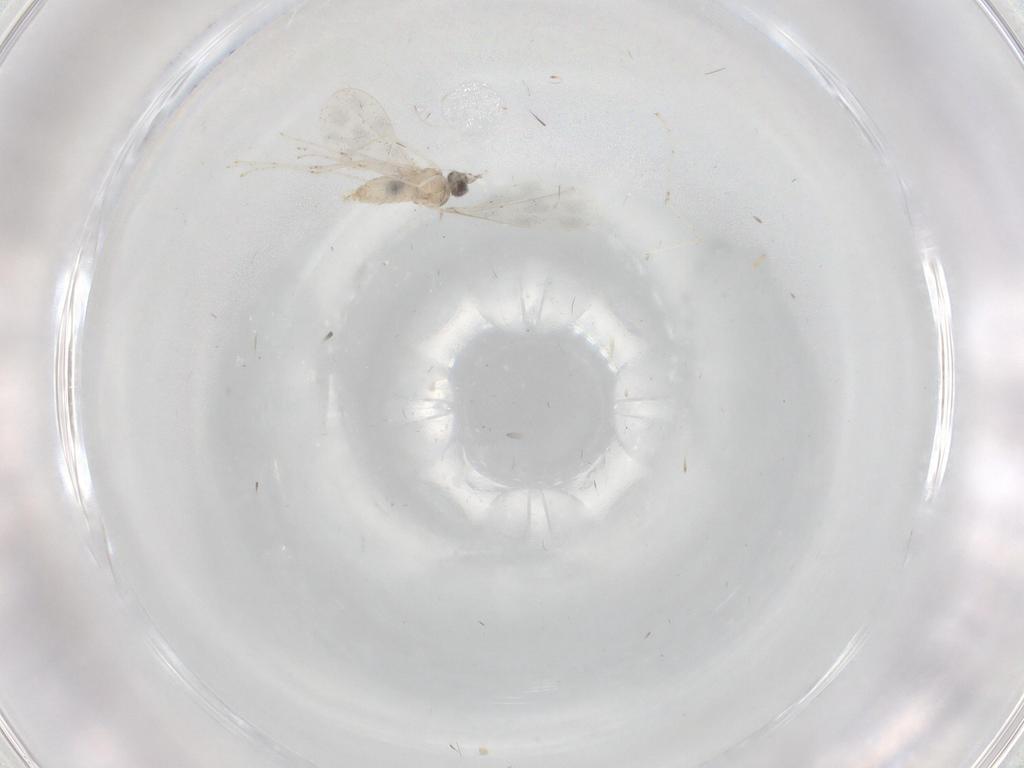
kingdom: Animalia
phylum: Arthropoda
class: Insecta
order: Diptera
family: Cecidomyiidae
